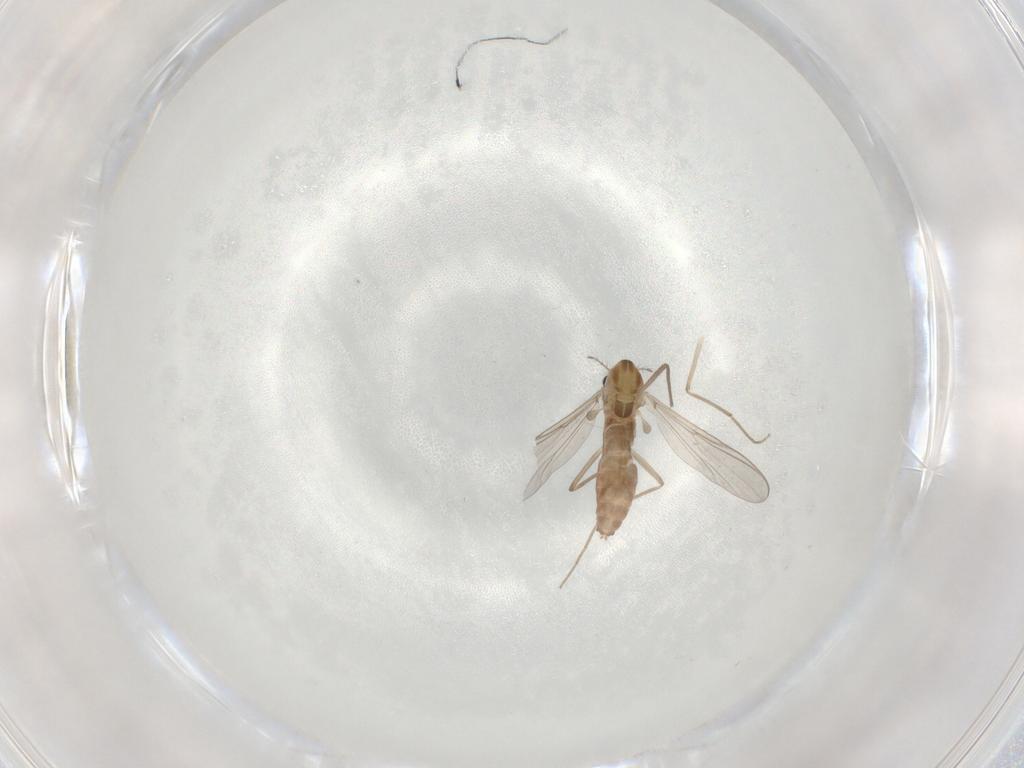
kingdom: Animalia
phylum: Arthropoda
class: Insecta
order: Diptera
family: Chironomidae
